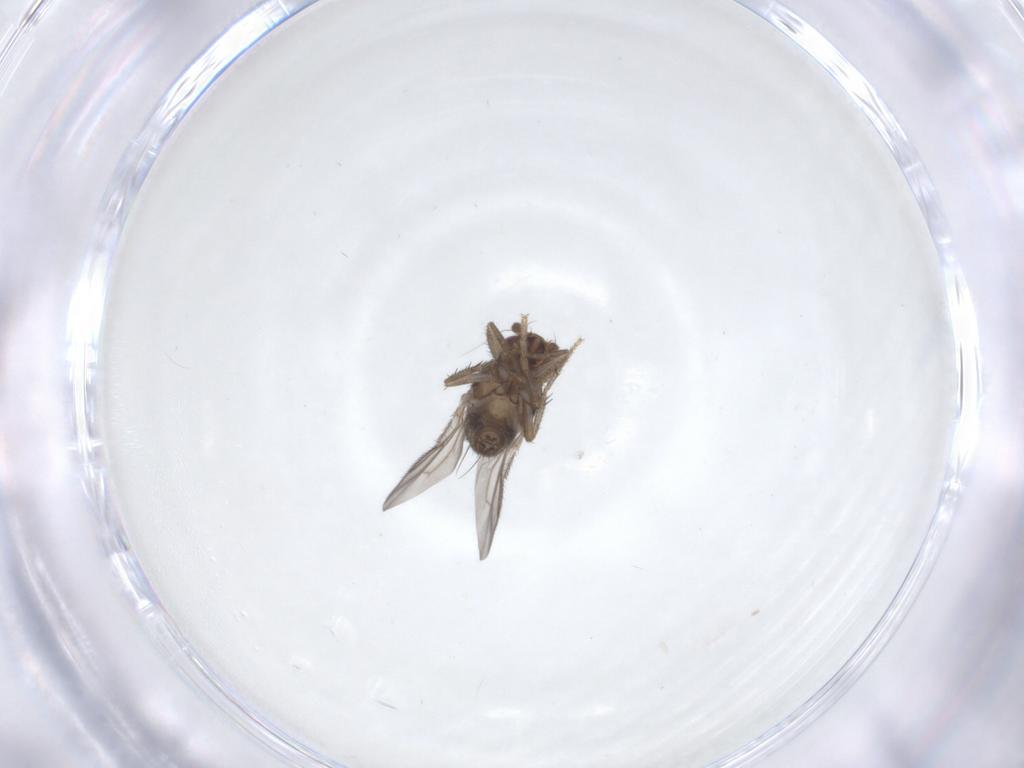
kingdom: Animalia
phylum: Arthropoda
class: Insecta
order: Diptera
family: Sphaeroceridae
